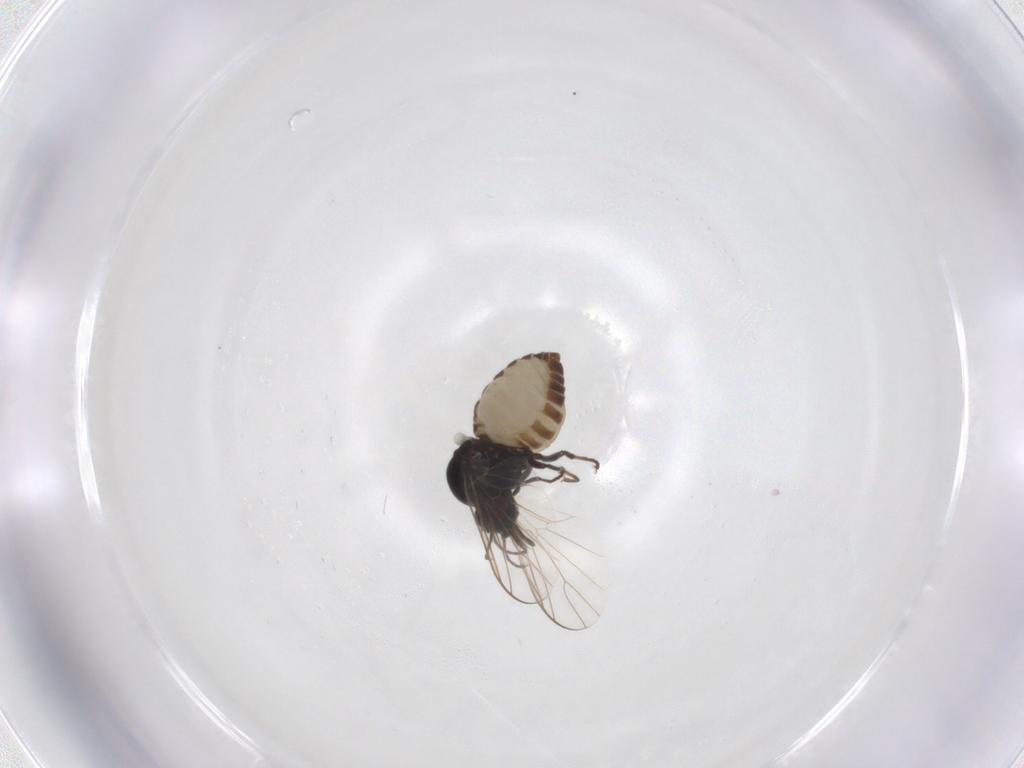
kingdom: Animalia
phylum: Arthropoda
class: Insecta
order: Diptera
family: Bombyliidae
